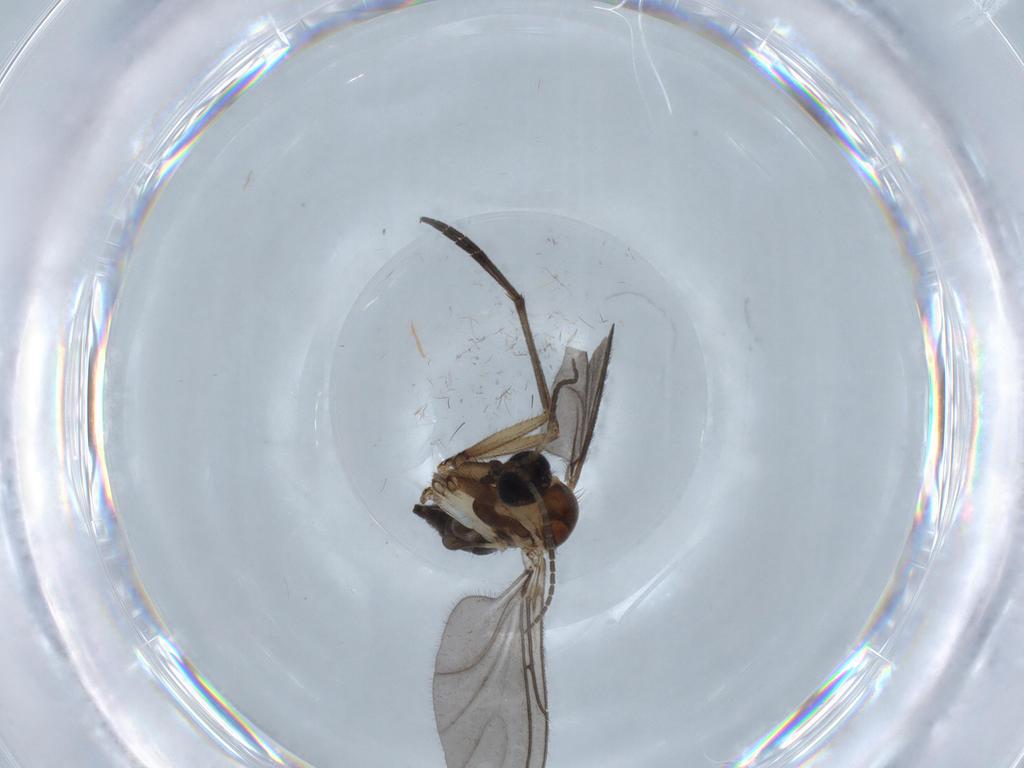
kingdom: Animalia
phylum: Arthropoda
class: Insecta
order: Diptera
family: Sciaridae
